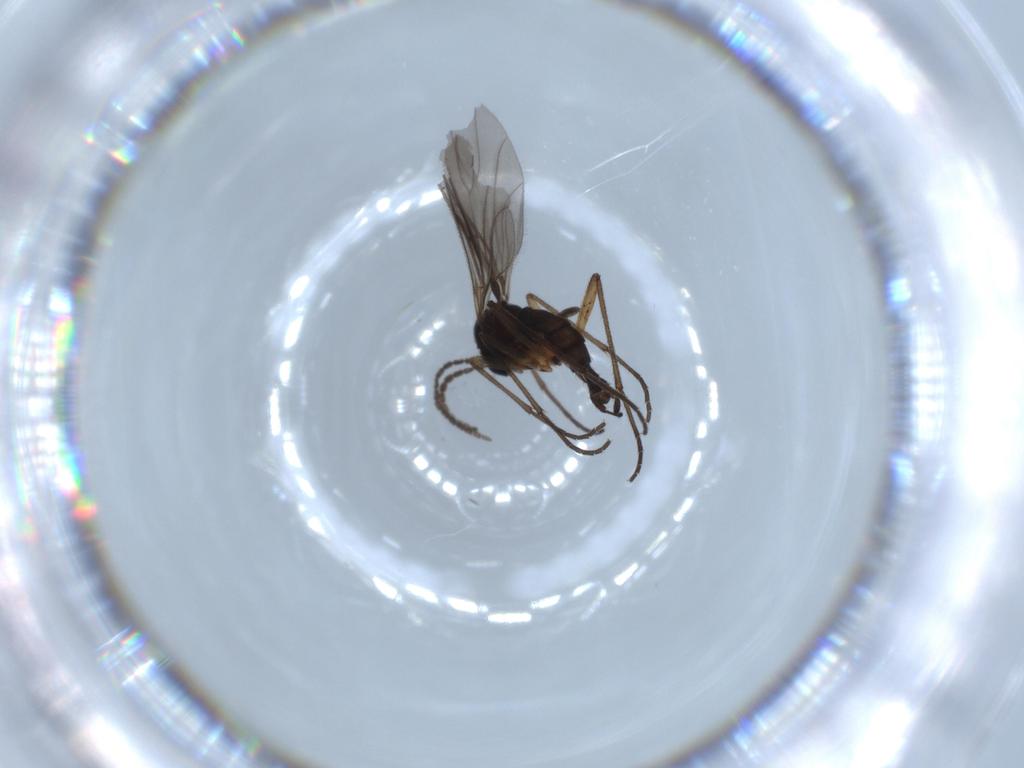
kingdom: Animalia
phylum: Arthropoda
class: Insecta
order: Diptera
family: Sciaridae
